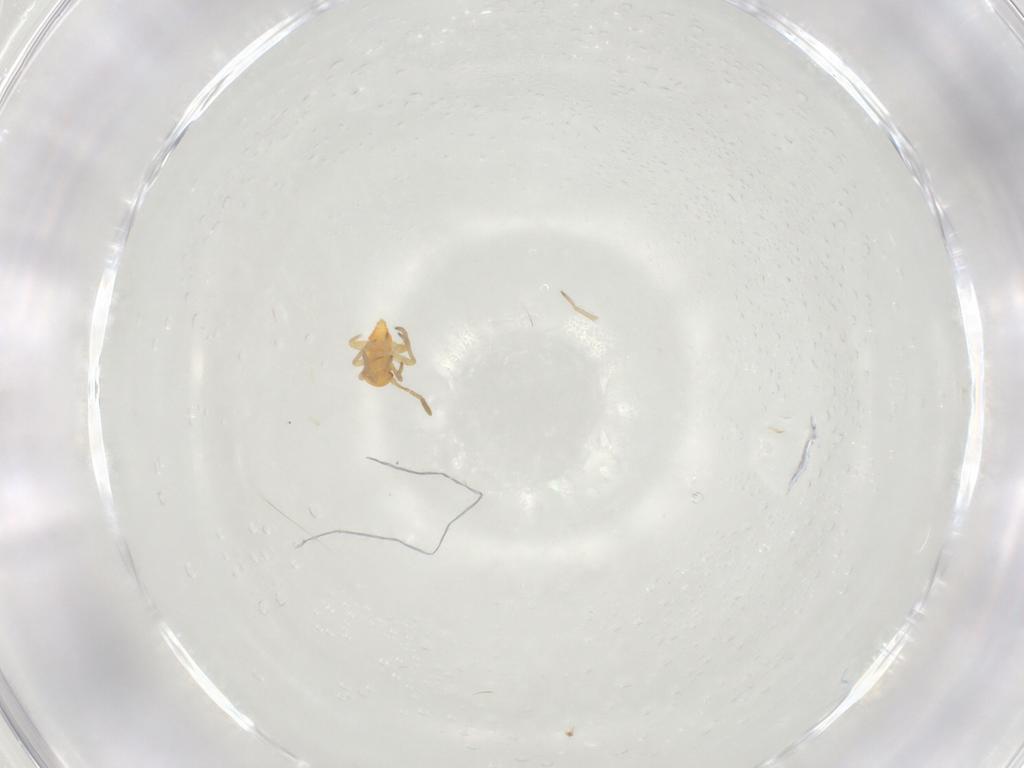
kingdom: Animalia
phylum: Arthropoda
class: Insecta
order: Hemiptera
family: Miridae
